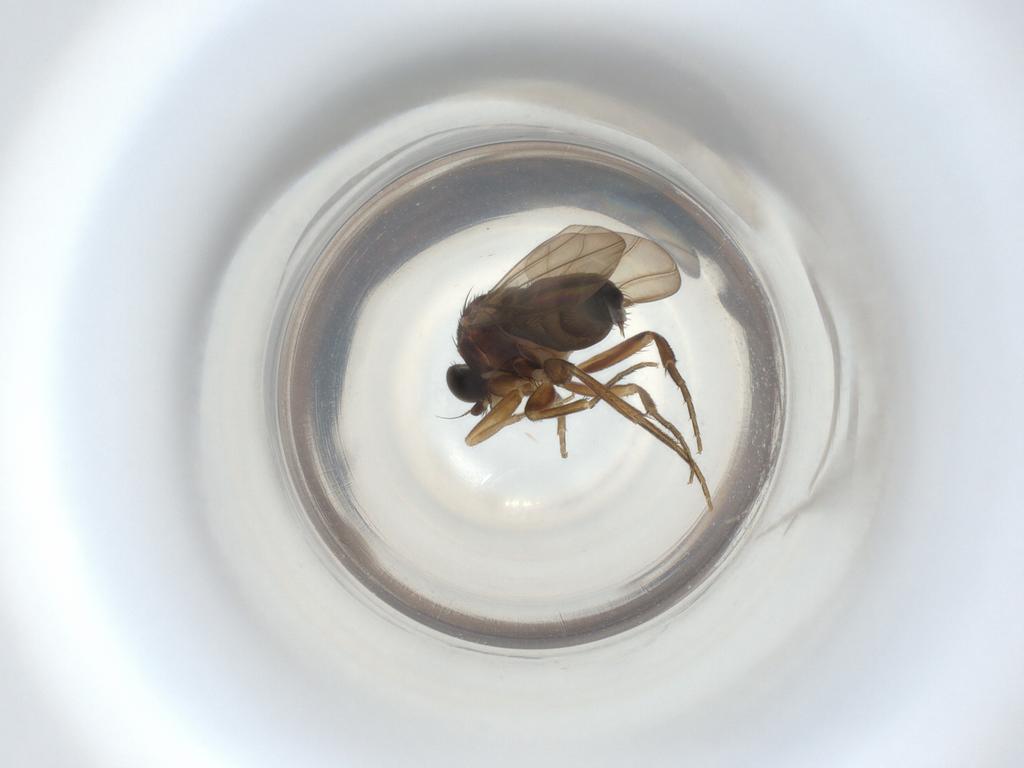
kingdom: Animalia
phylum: Arthropoda
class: Insecta
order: Diptera
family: Phoridae
